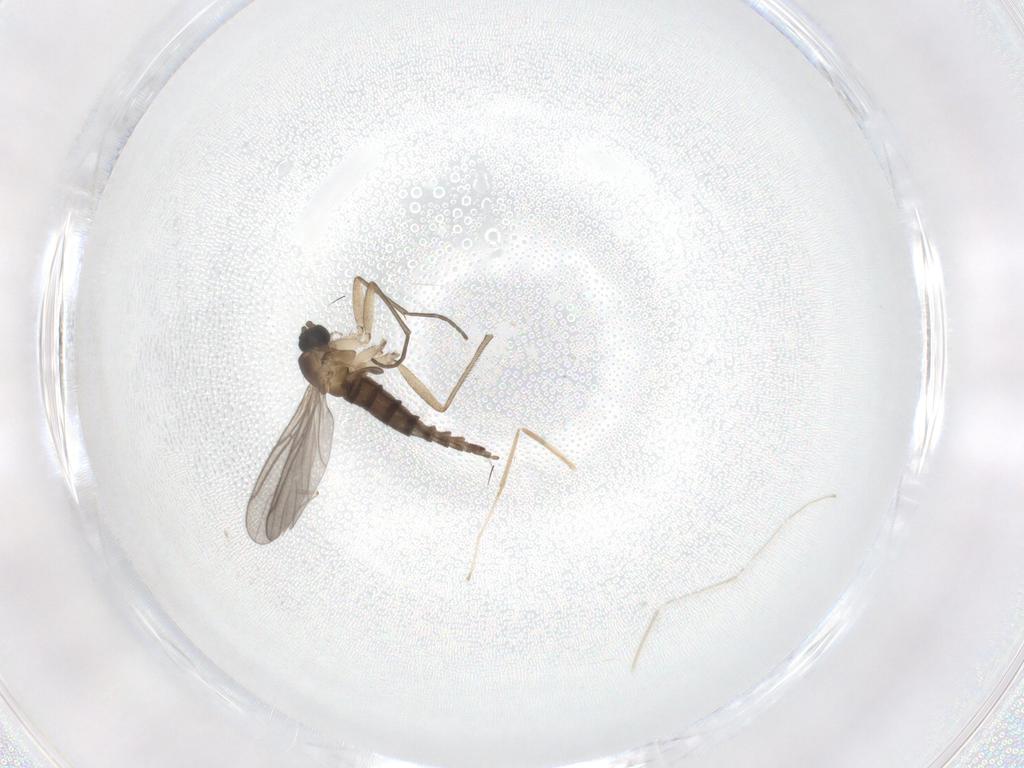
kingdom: Animalia
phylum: Arthropoda
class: Insecta
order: Diptera
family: Sciaridae
